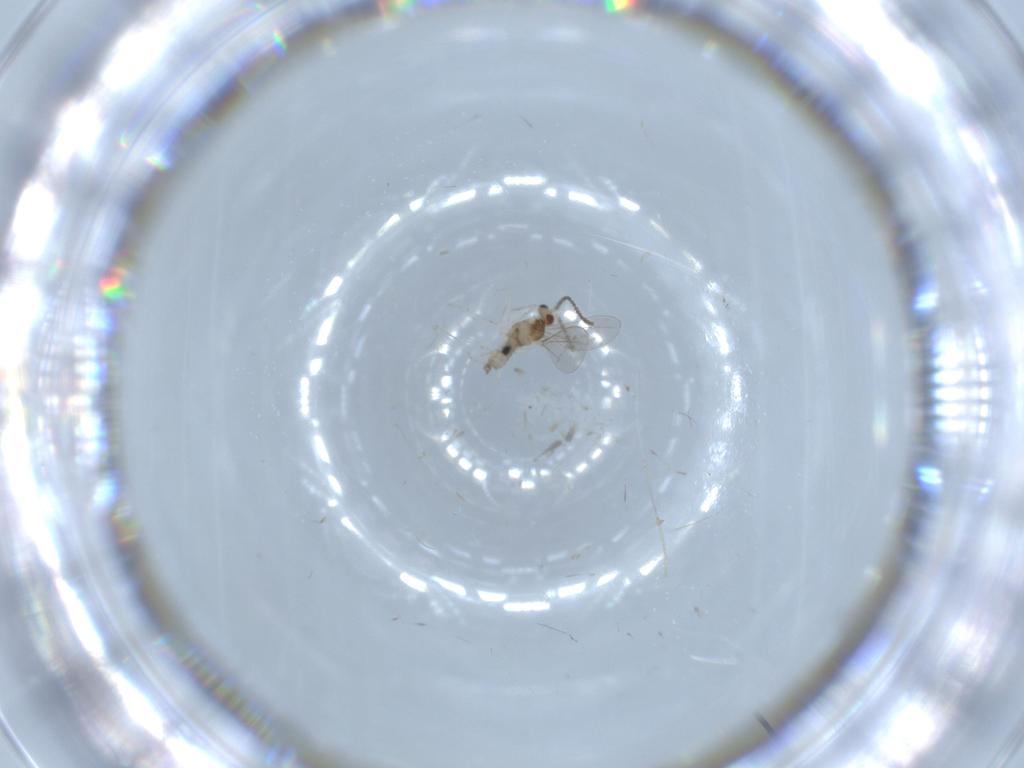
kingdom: Animalia
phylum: Arthropoda
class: Insecta
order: Diptera
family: Cecidomyiidae
